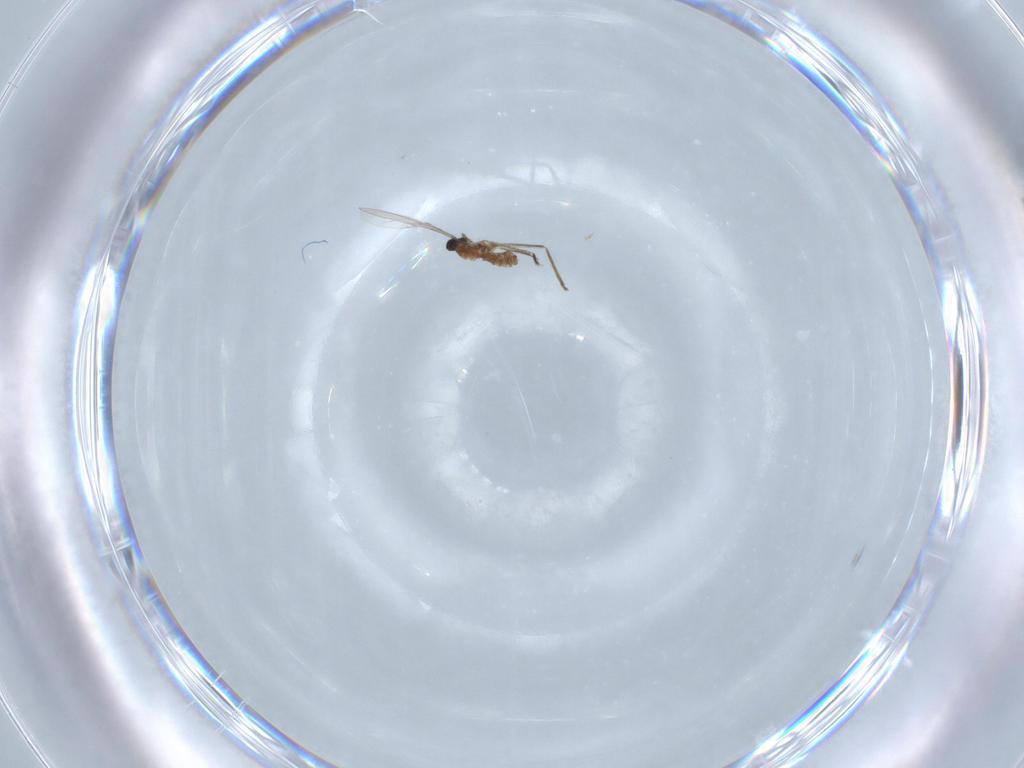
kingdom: Animalia
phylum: Arthropoda
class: Insecta
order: Diptera
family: Cecidomyiidae
